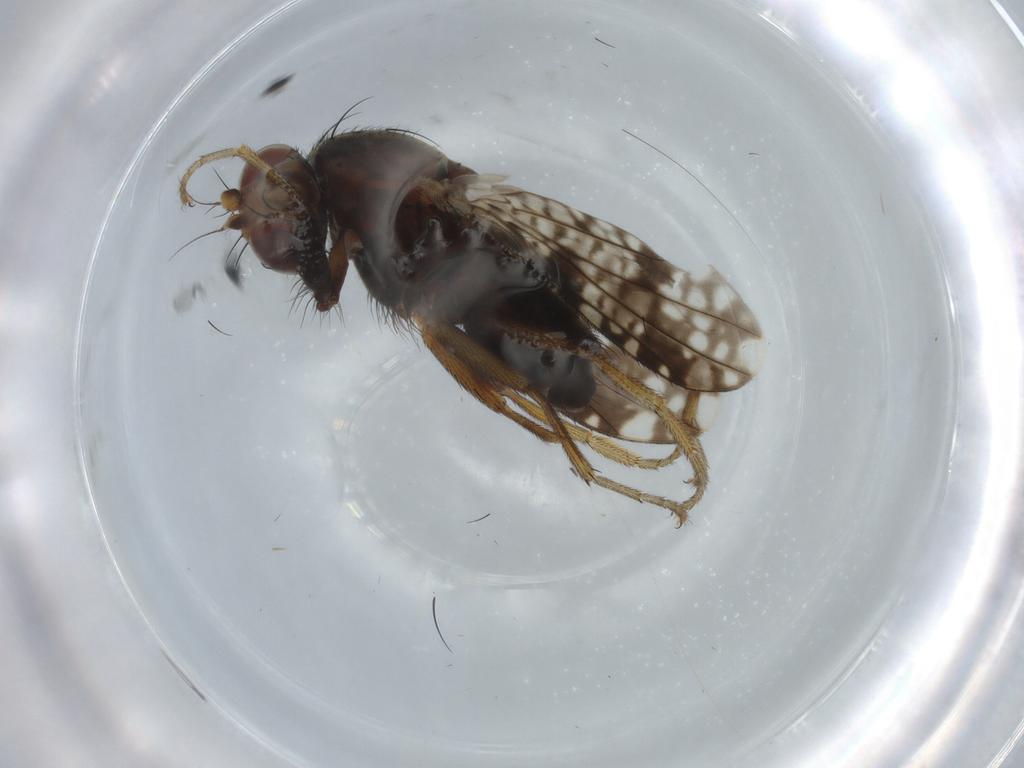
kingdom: Animalia
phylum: Arthropoda
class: Insecta
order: Diptera
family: Tephritidae
